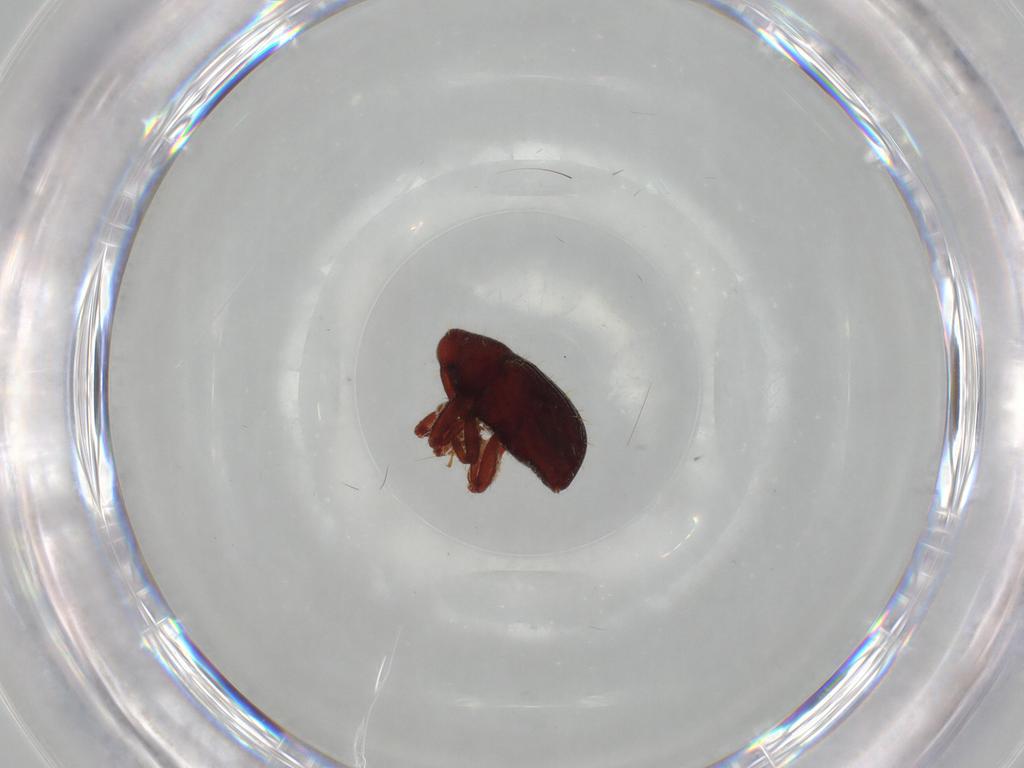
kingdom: Animalia
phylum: Arthropoda
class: Insecta
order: Coleoptera
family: Curculionidae
